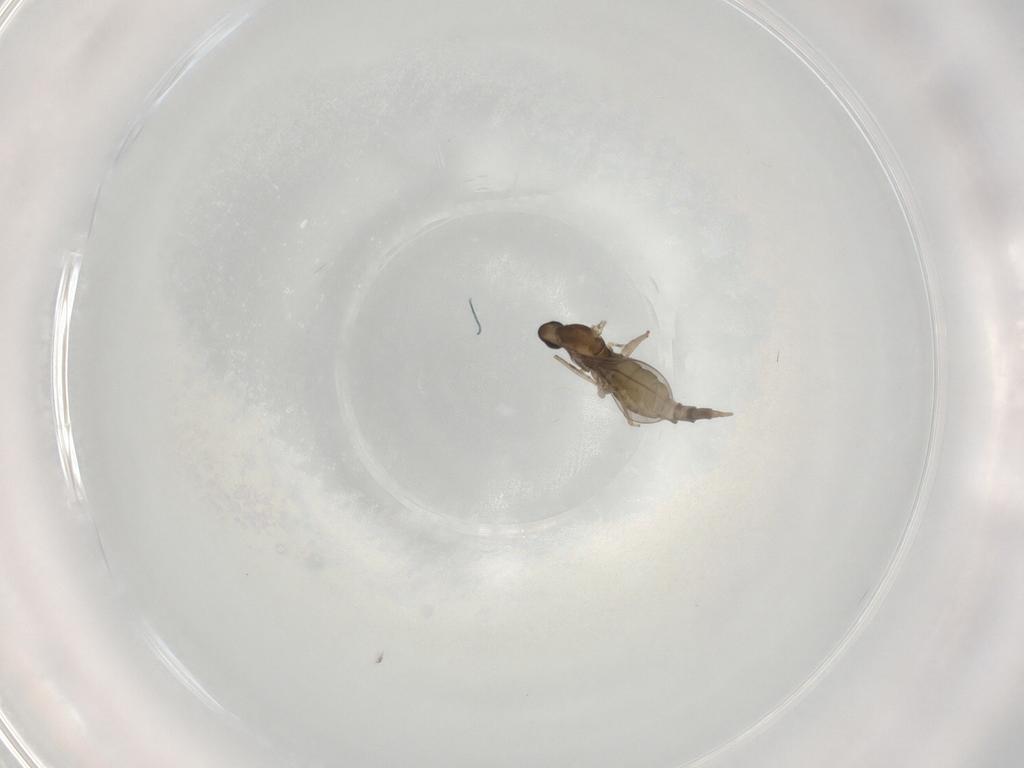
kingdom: Animalia
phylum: Arthropoda
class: Insecta
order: Diptera
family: Cecidomyiidae
